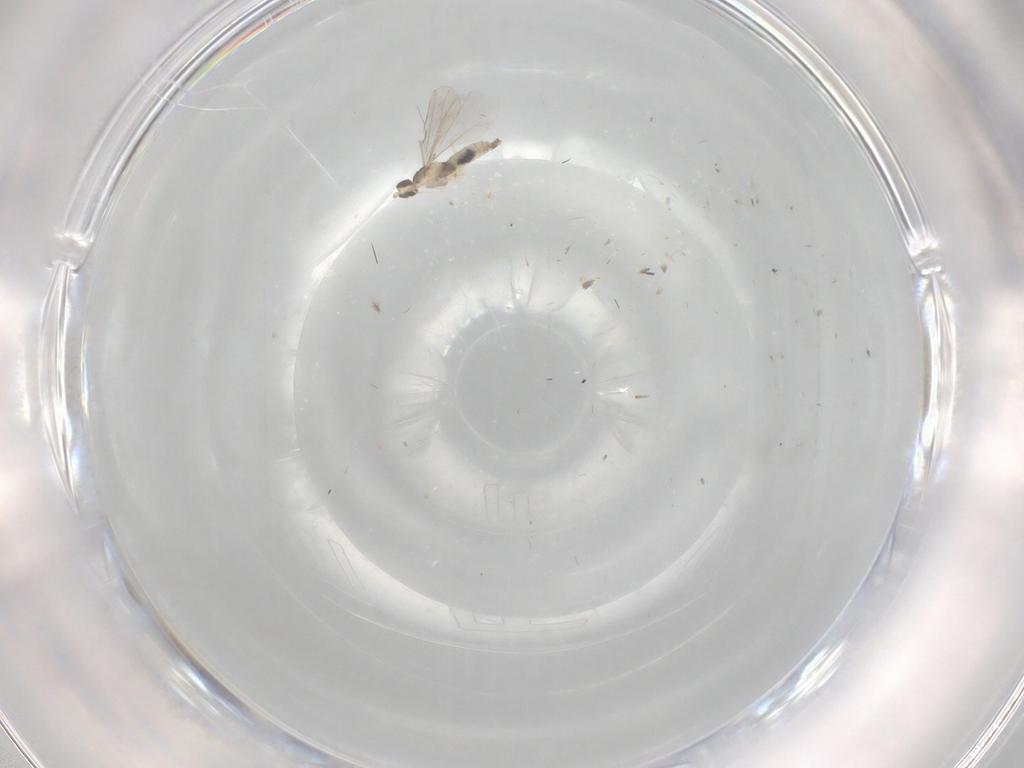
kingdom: Animalia
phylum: Arthropoda
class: Insecta
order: Diptera
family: Cecidomyiidae
